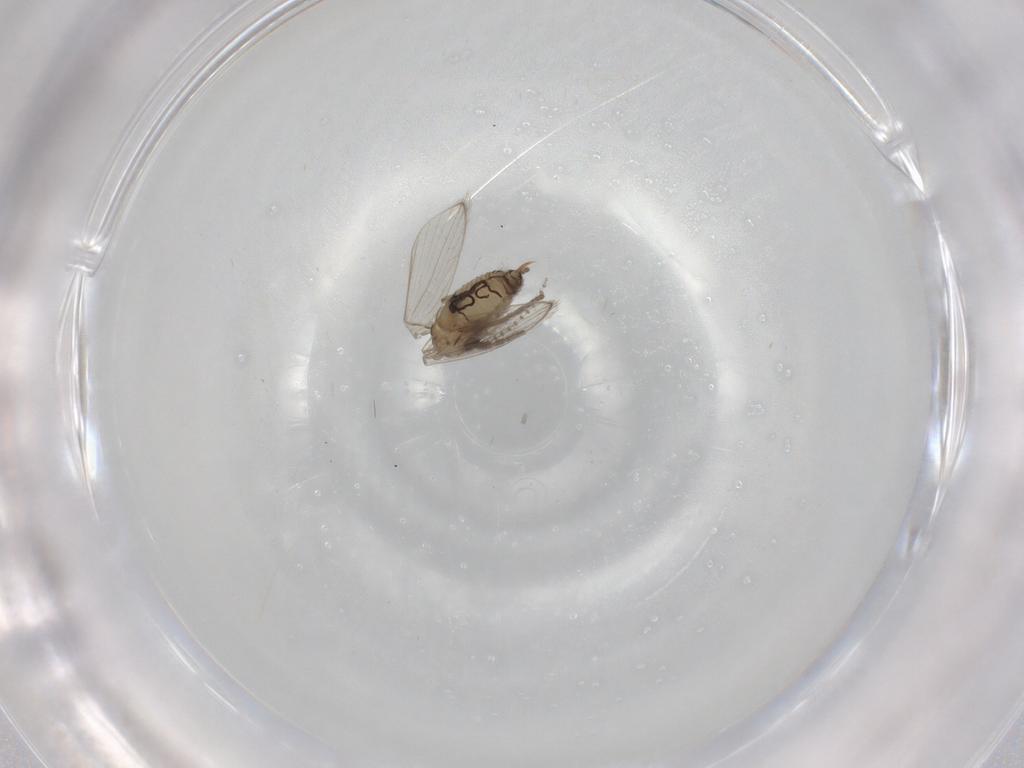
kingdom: Animalia
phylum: Arthropoda
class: Insecta
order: Diptera
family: Psychodidae
